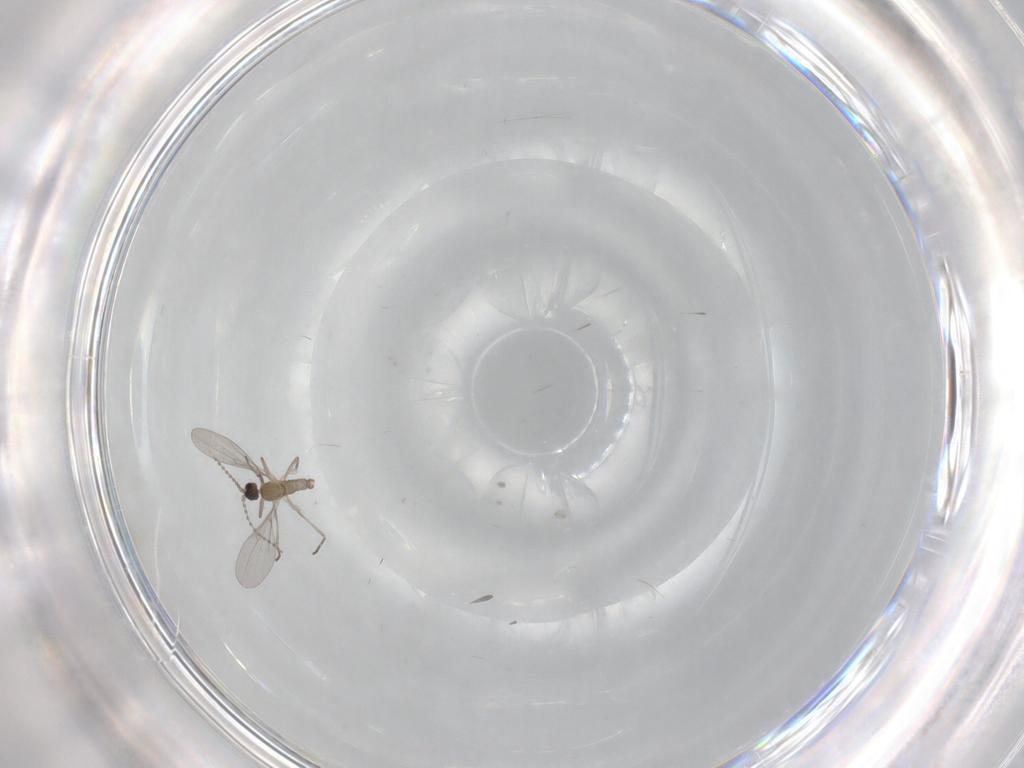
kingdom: Animalia
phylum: Arthropoda
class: Insecta
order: Diptera
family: Cecidomyiidae
